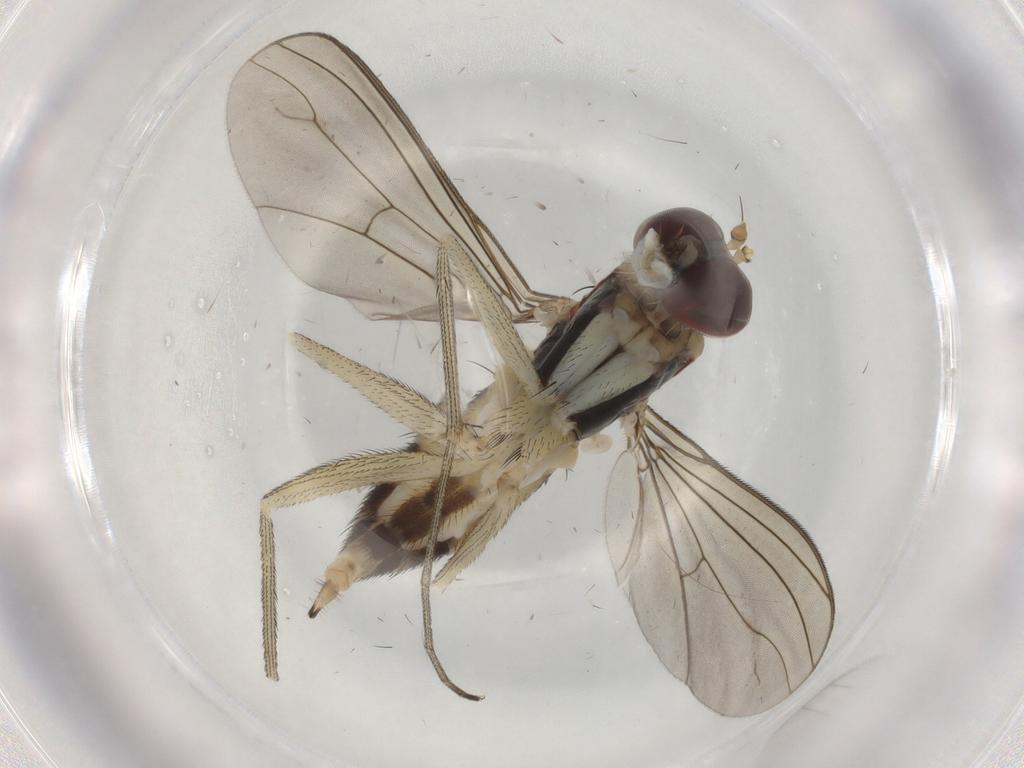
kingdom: Animalia
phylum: Arthropoda
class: Insecta
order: Diptera
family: Dolichopodidae
